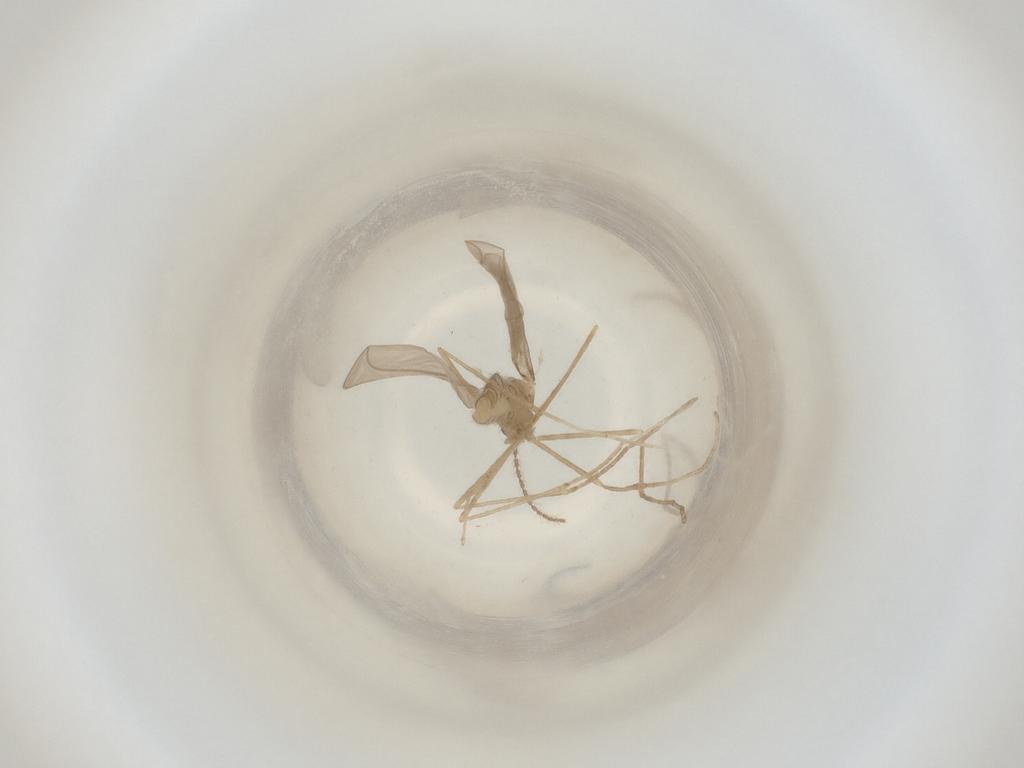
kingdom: Animalia
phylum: Arthropoda
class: Insecta
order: Diptera
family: Cecidomyiidae
